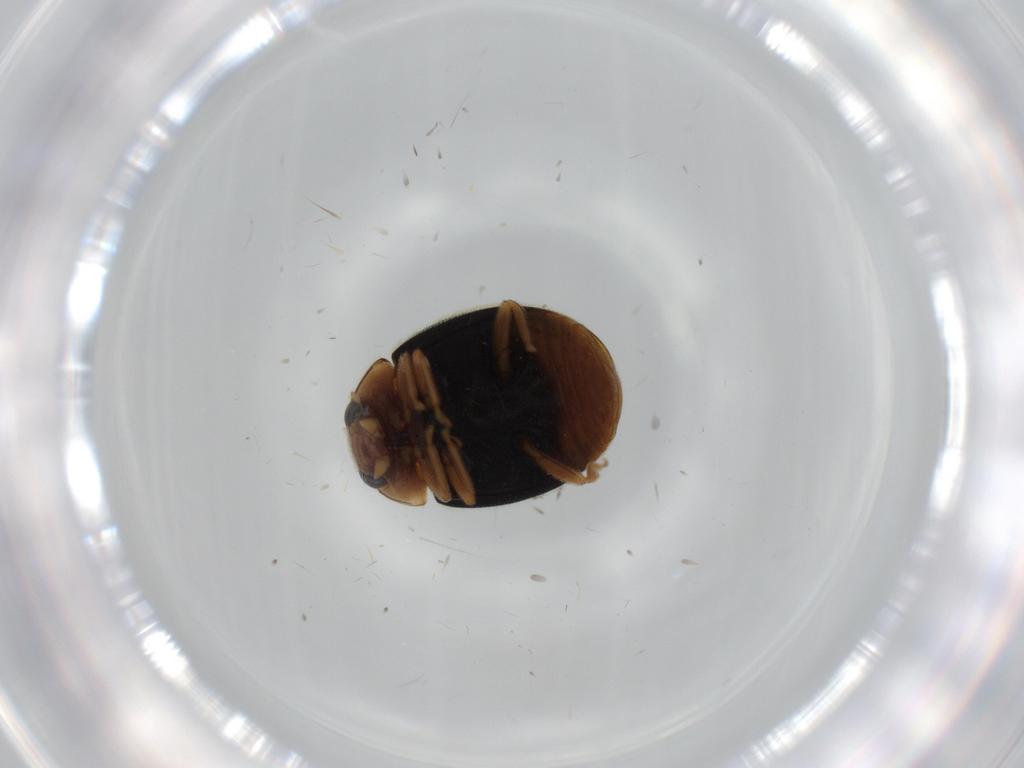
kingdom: Animalia
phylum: Arthropoda
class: Insecta
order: Coleoptera
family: Coccinellidae
